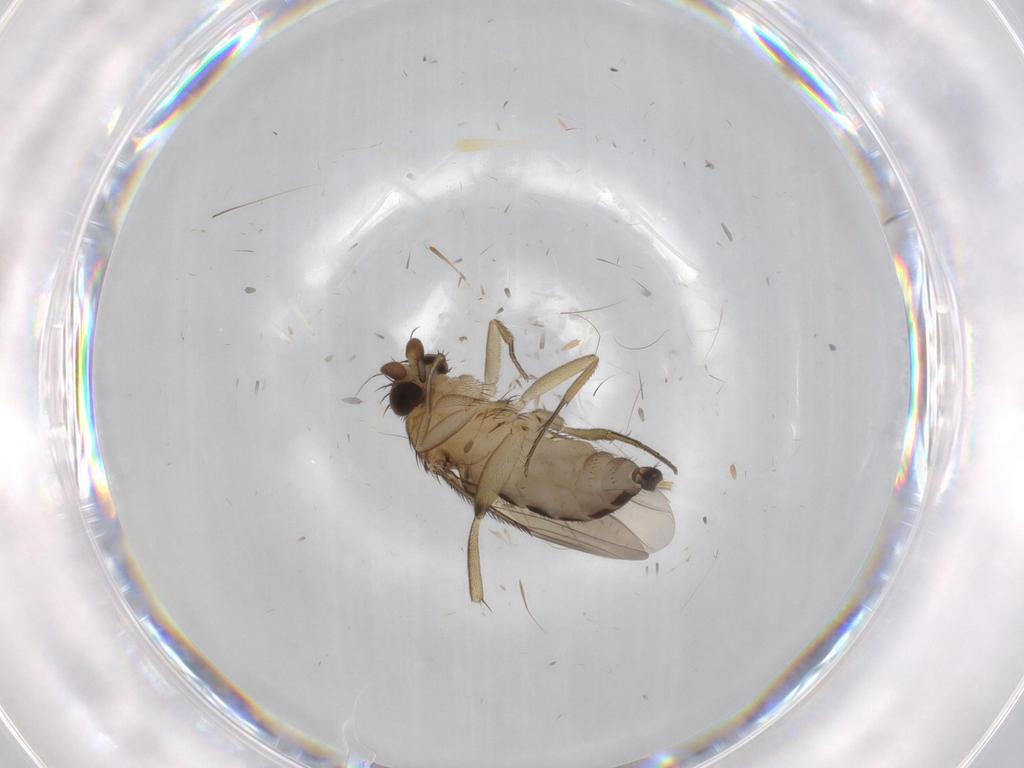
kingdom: Animalia
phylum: Arthropoda
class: Insecta
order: Diptera
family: Phoridae
